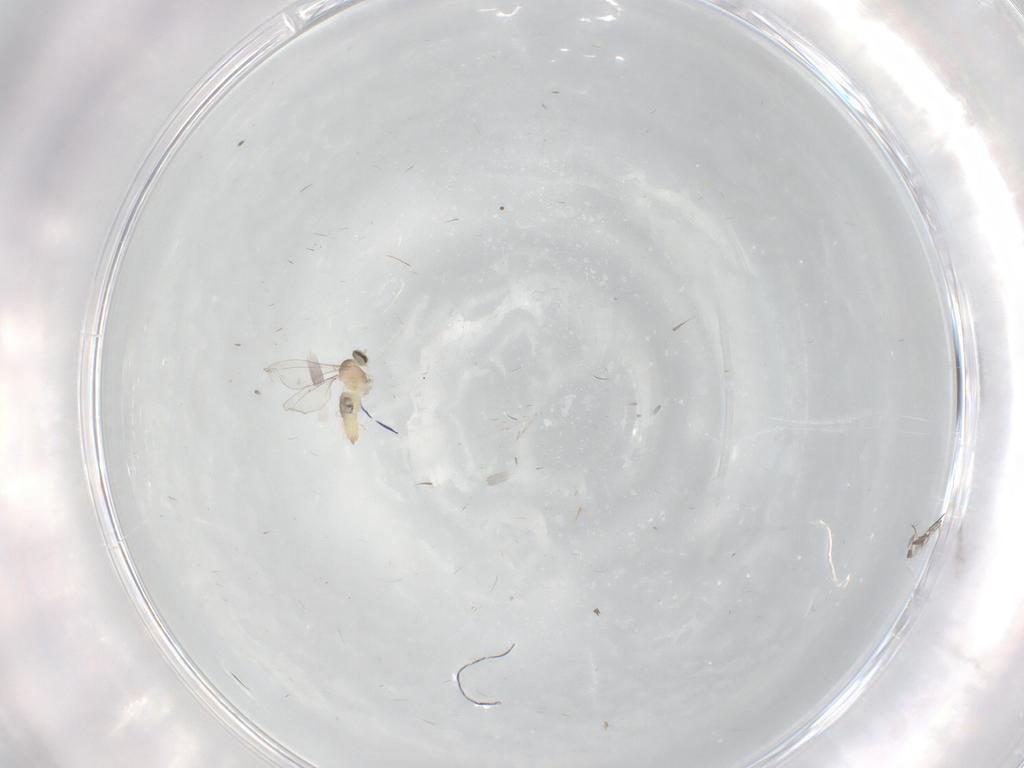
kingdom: Animalia
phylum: Arthropoda
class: Insecta
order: Diptera
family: Cecidomyiidae
